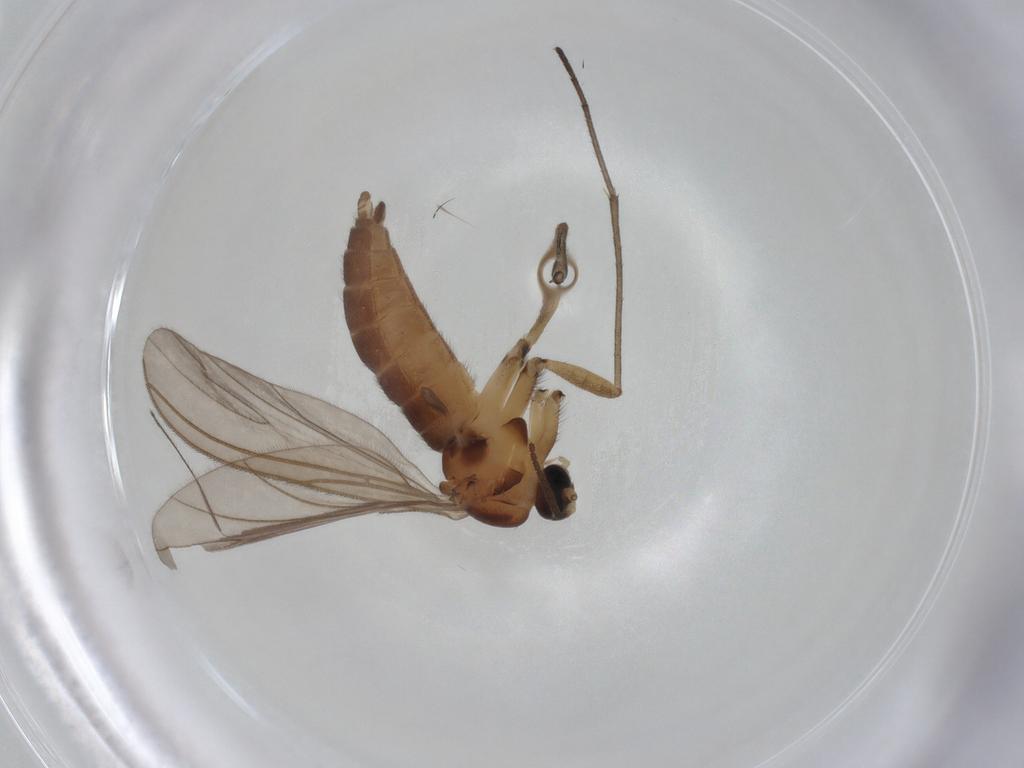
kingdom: Animalia
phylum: Arthropoda
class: Insecta
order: Diptera
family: Sciaridae
